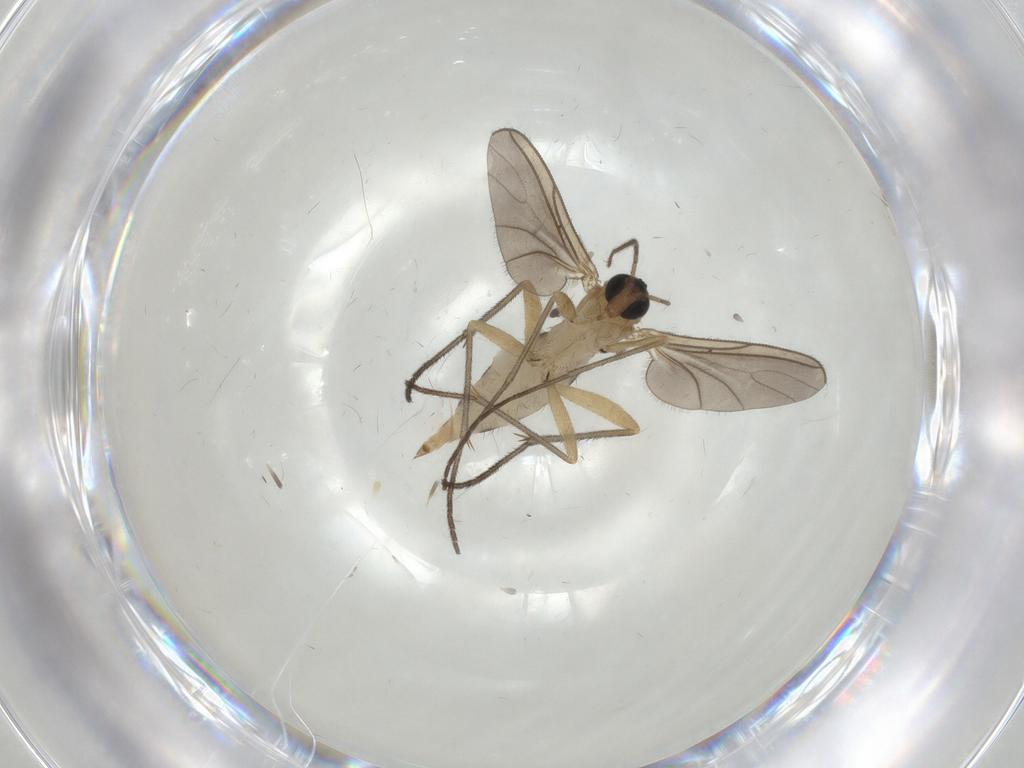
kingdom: Animalia
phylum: Arthropoda
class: Insecta
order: Diptera
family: Sciaridae
